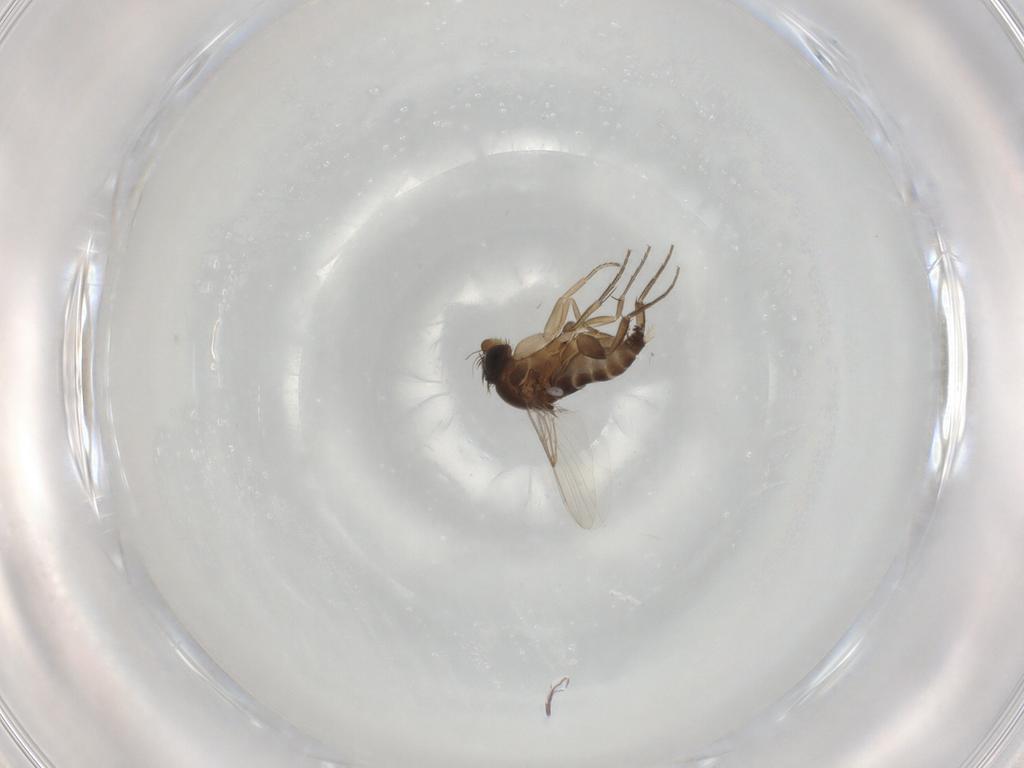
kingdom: Animalia
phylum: Arthropoda
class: Insecta
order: Diptera
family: Phoridae
